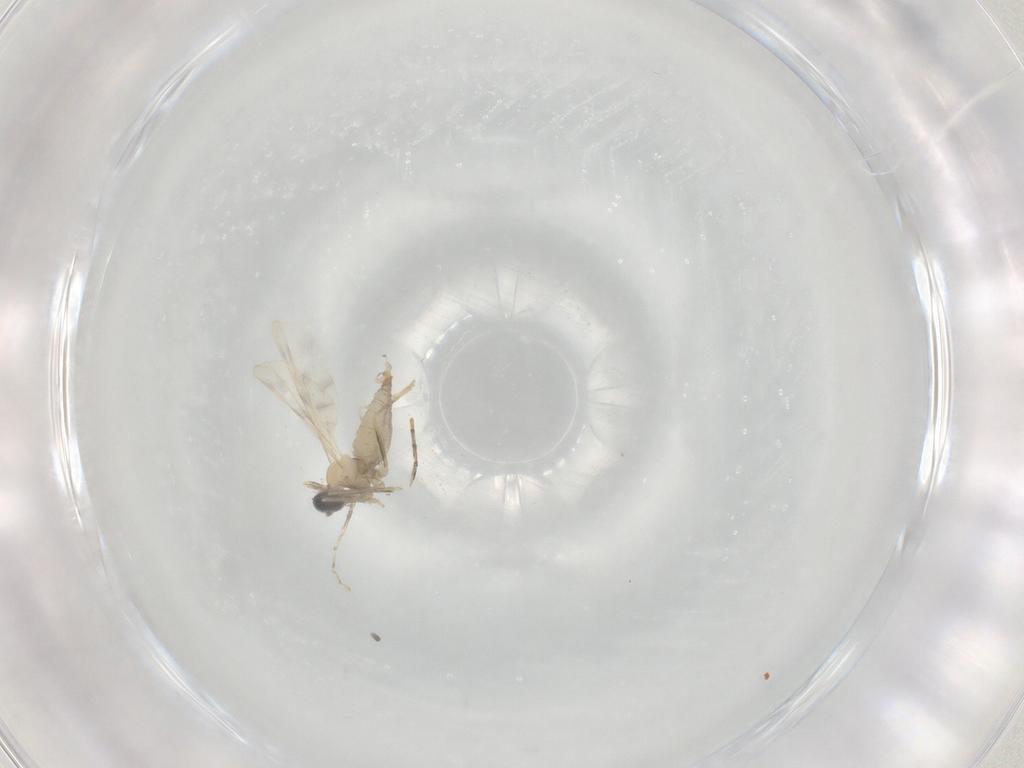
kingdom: Animalia
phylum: Arthropoda
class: Insecta
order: Diptera
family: Cecidomyiidae
